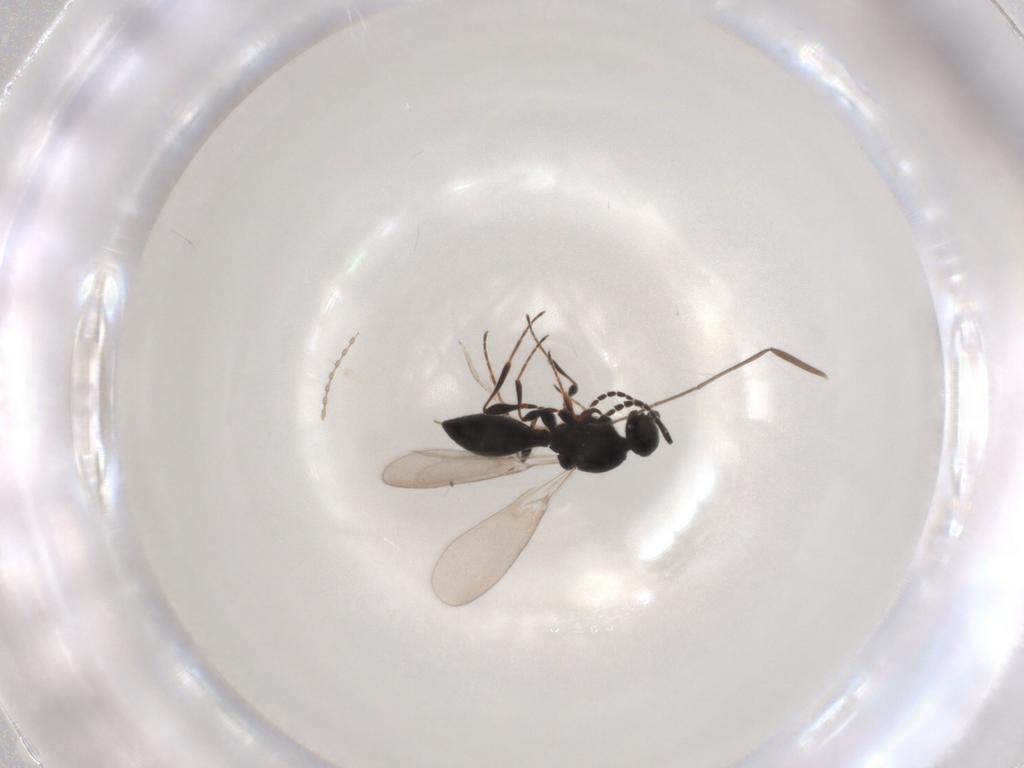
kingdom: Animalia
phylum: Arthropoda
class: Insecta
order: Hymenoptera
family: Platygastridae
